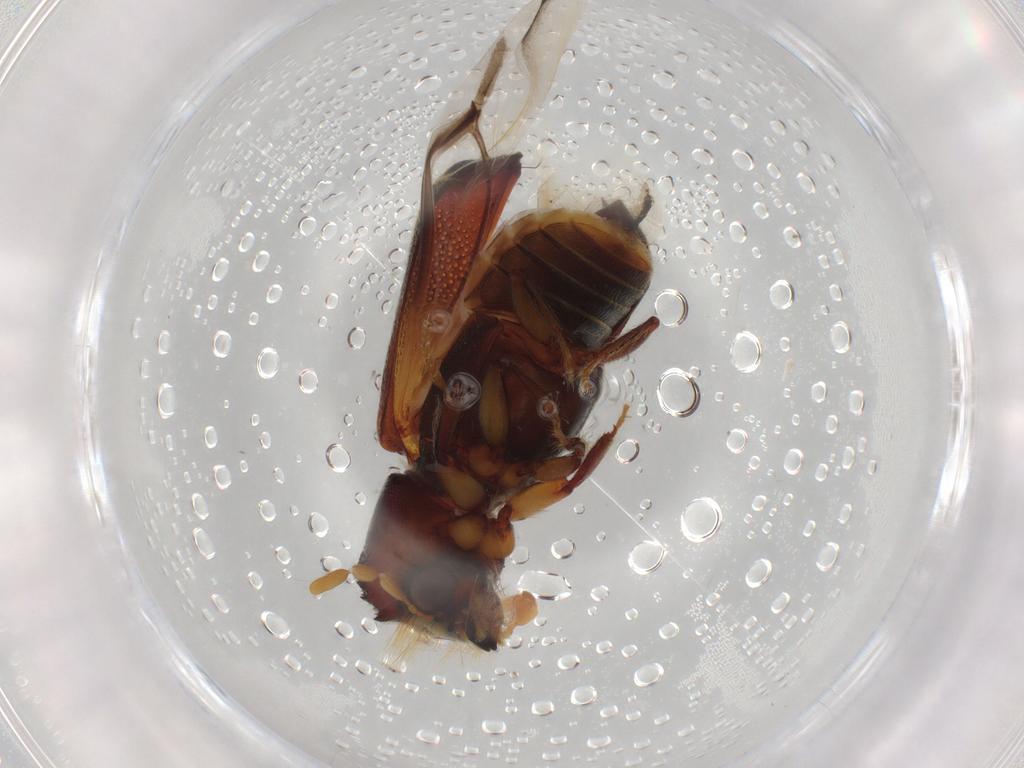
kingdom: Animalia
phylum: Arthropoda
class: Insecta
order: Coleoptera
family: Bostrichidae
